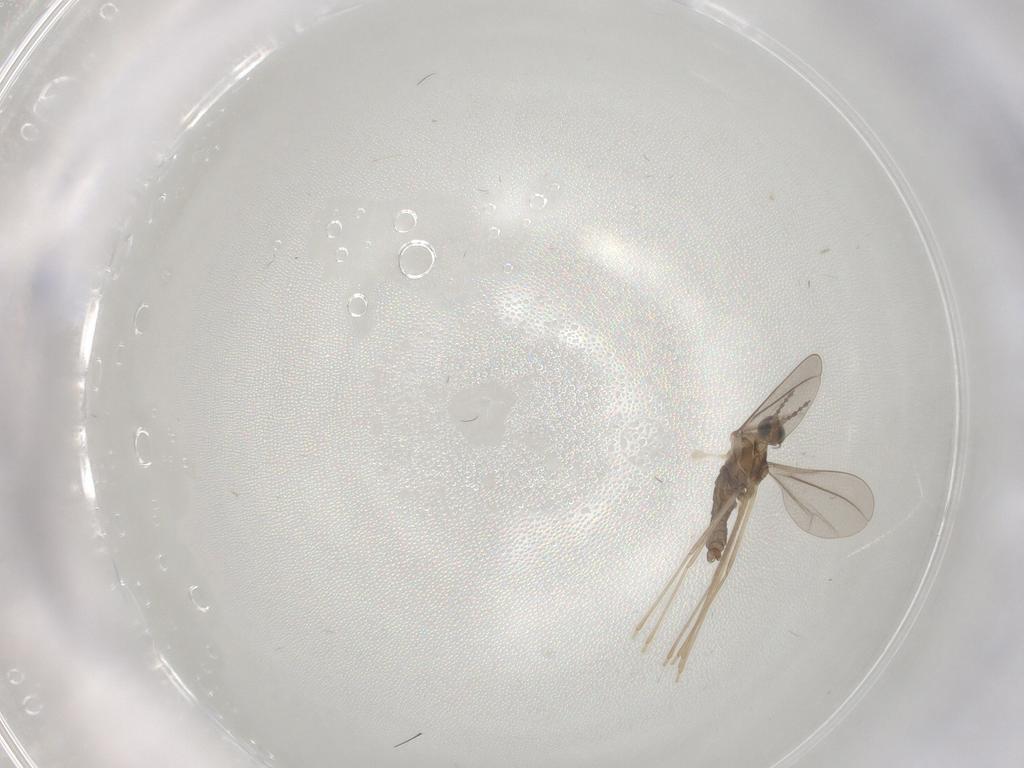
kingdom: Animalia
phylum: Arthropoda
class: Insecta
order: Diptera
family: Cecidomyiidae
